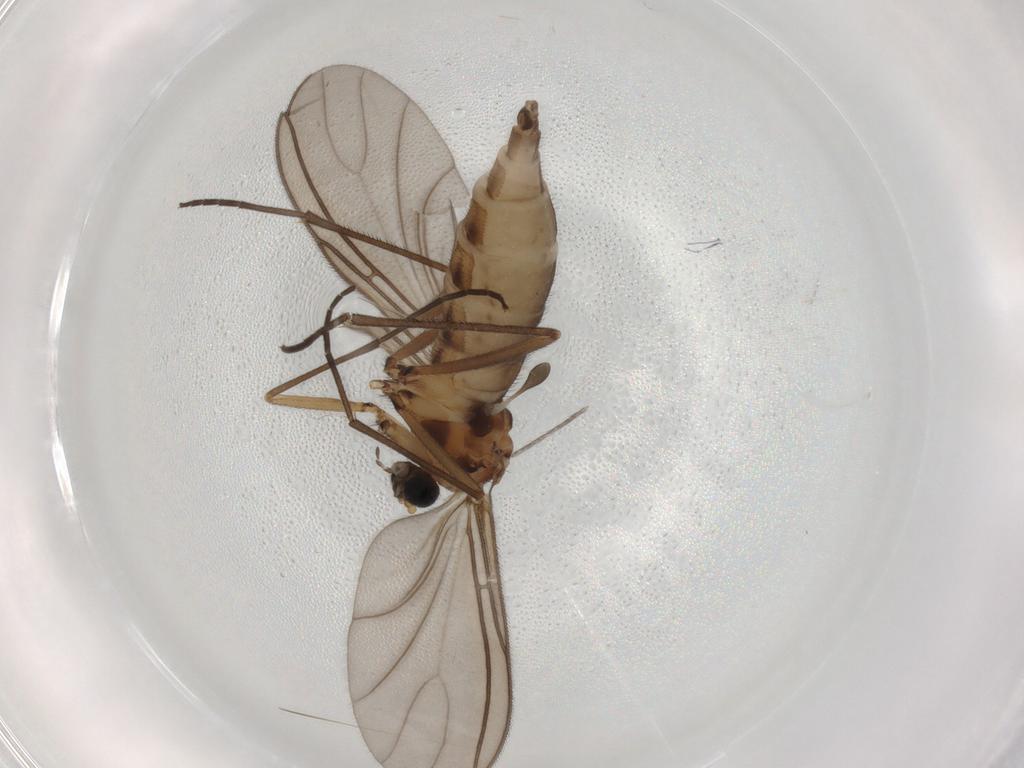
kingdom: Animalia
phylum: Arthropoda
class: Insecta
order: Diptera
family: Sciaridae
